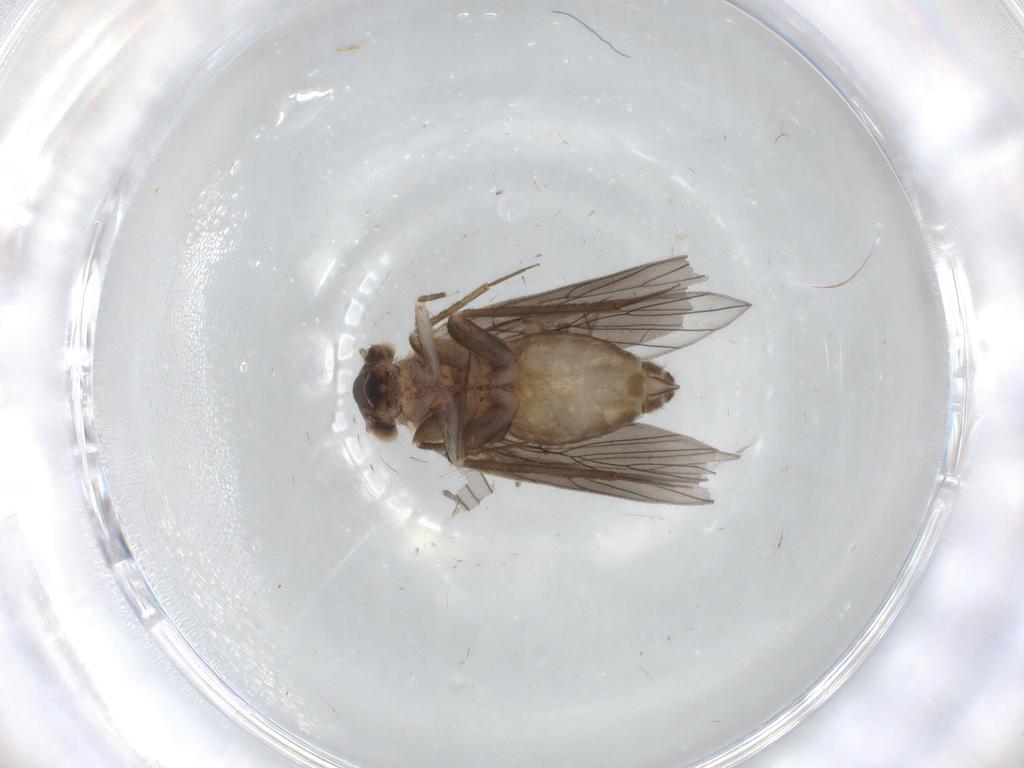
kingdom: Animalia
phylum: Arthropoda
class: Insecta
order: Psocodea
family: Lepidopsocidae
